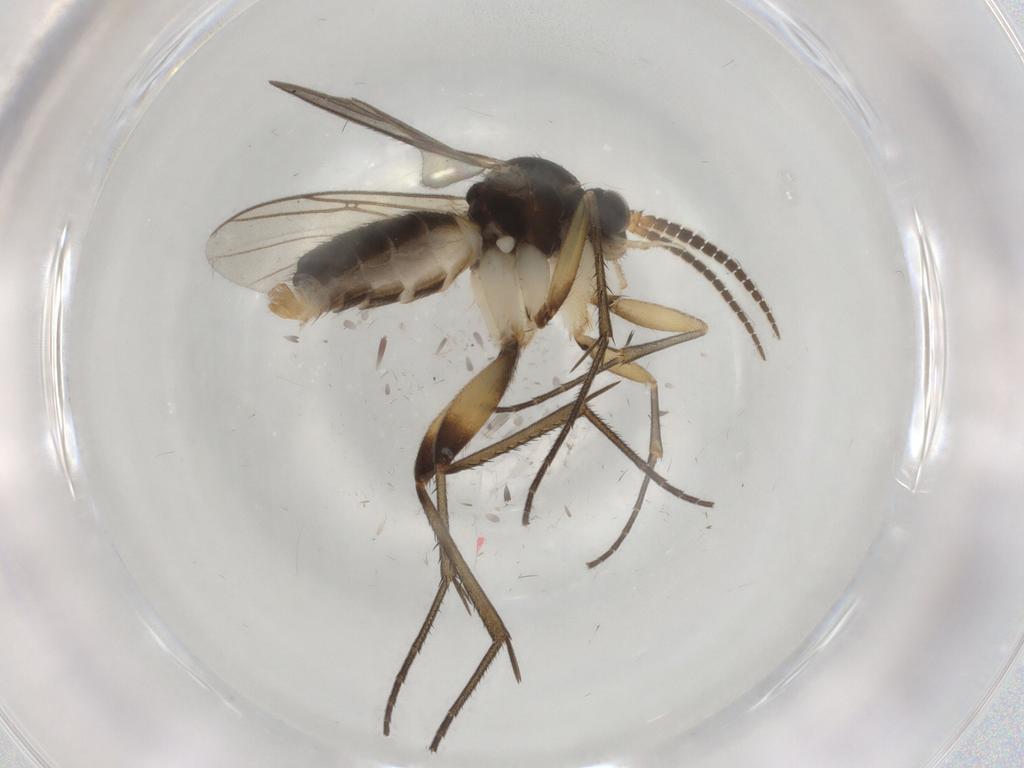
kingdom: Animalia
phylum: Arthropoda
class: Insecta
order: Diptera
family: Mycetophilidae
